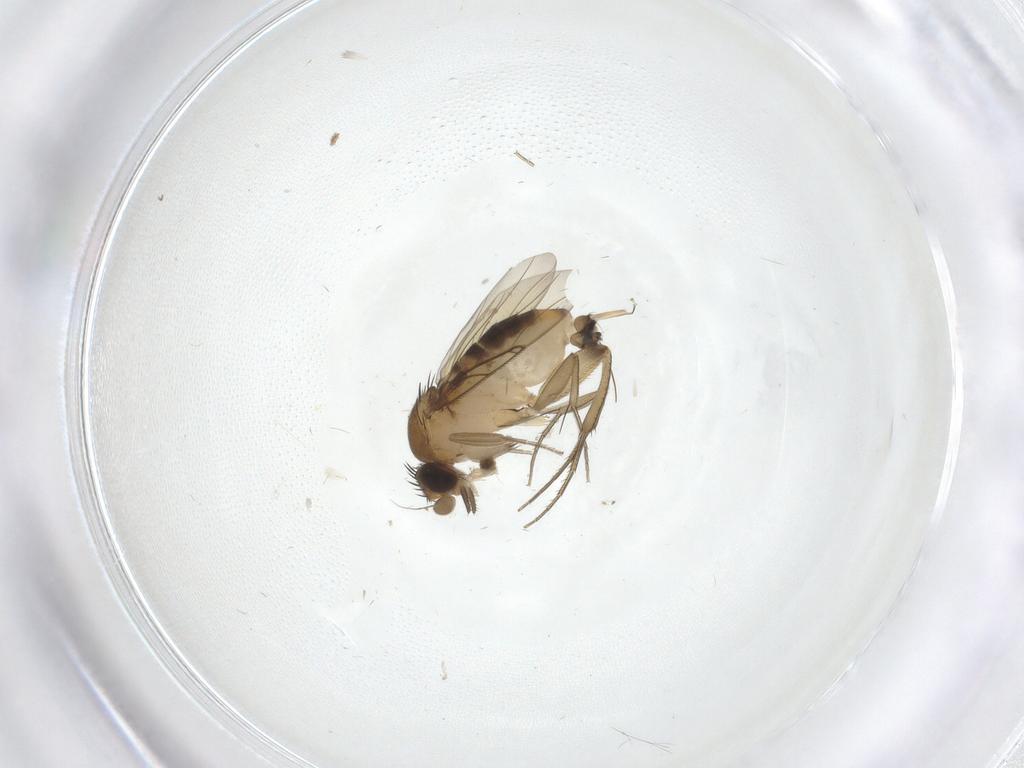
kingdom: Animalia
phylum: Arthropoda
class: Insecta
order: Diptera
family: Phoridae
